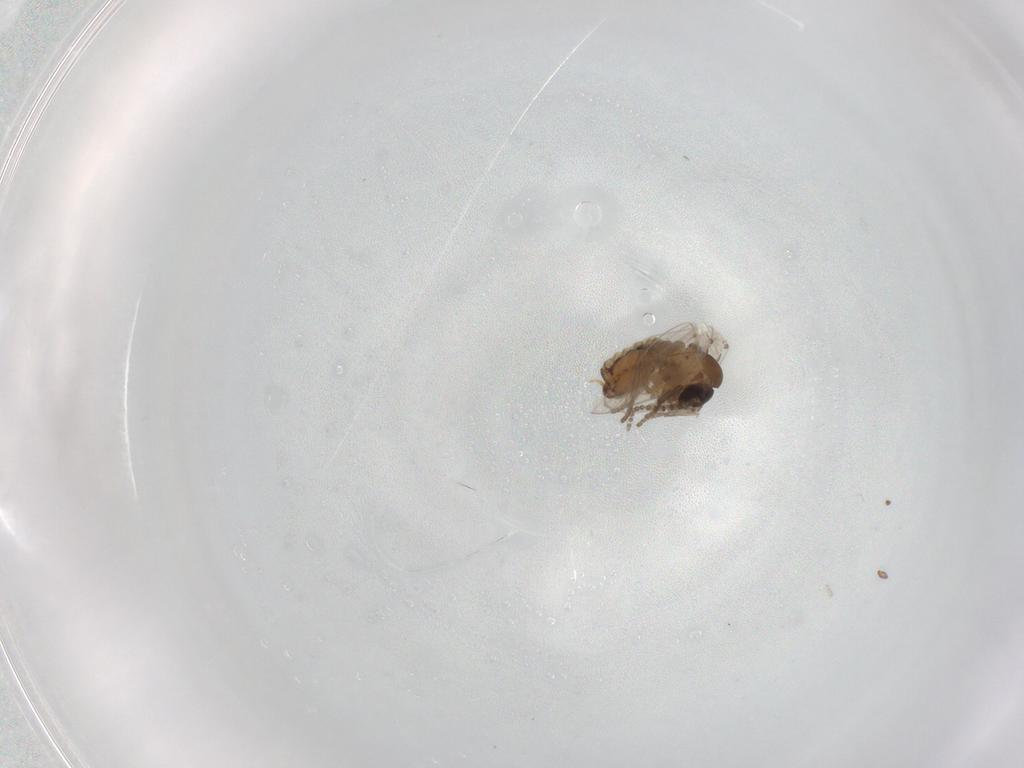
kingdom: Animalia
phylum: Arthropoda
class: Insecta
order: Diptera
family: Psychodidae
